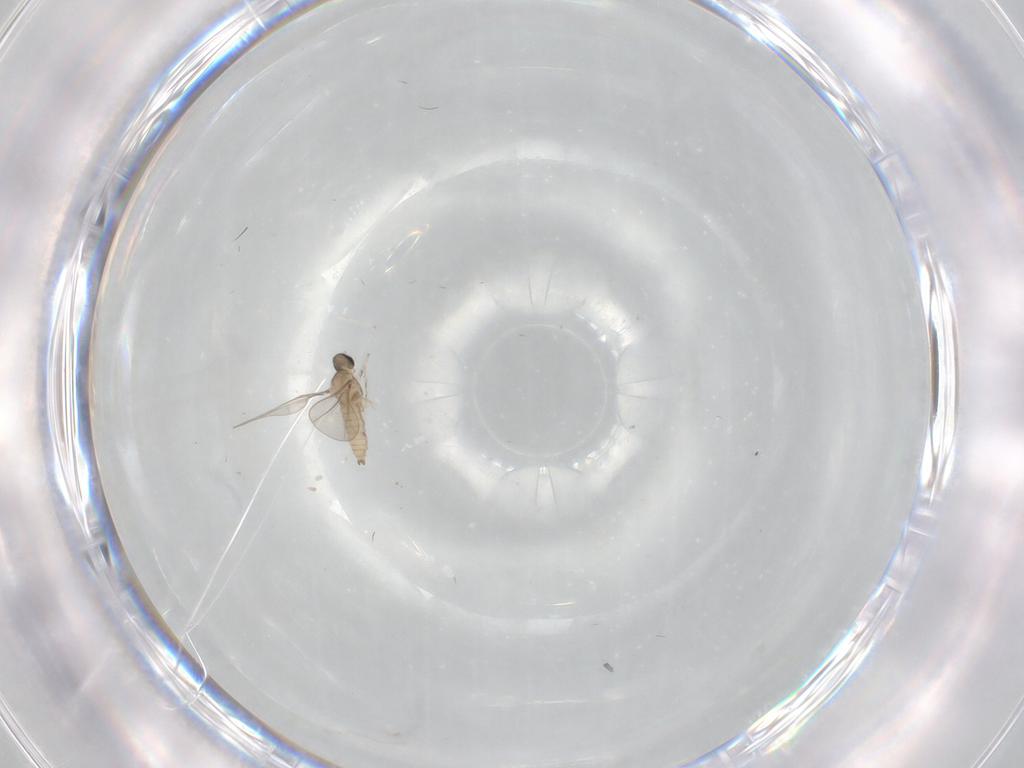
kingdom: Animalia
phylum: Arthropoda
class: Insecta
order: Diptera
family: Cecidomyiidae
